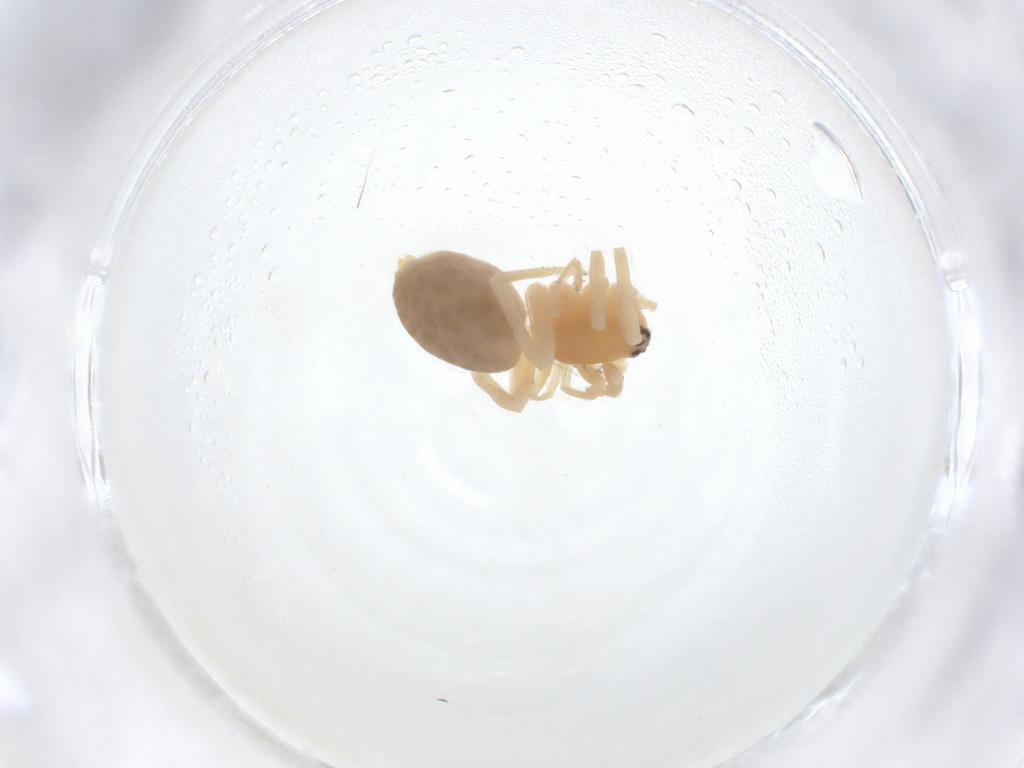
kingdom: Animalia
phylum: Arthropoda
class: Arachnida
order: Araneae
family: Anyphaenidae
